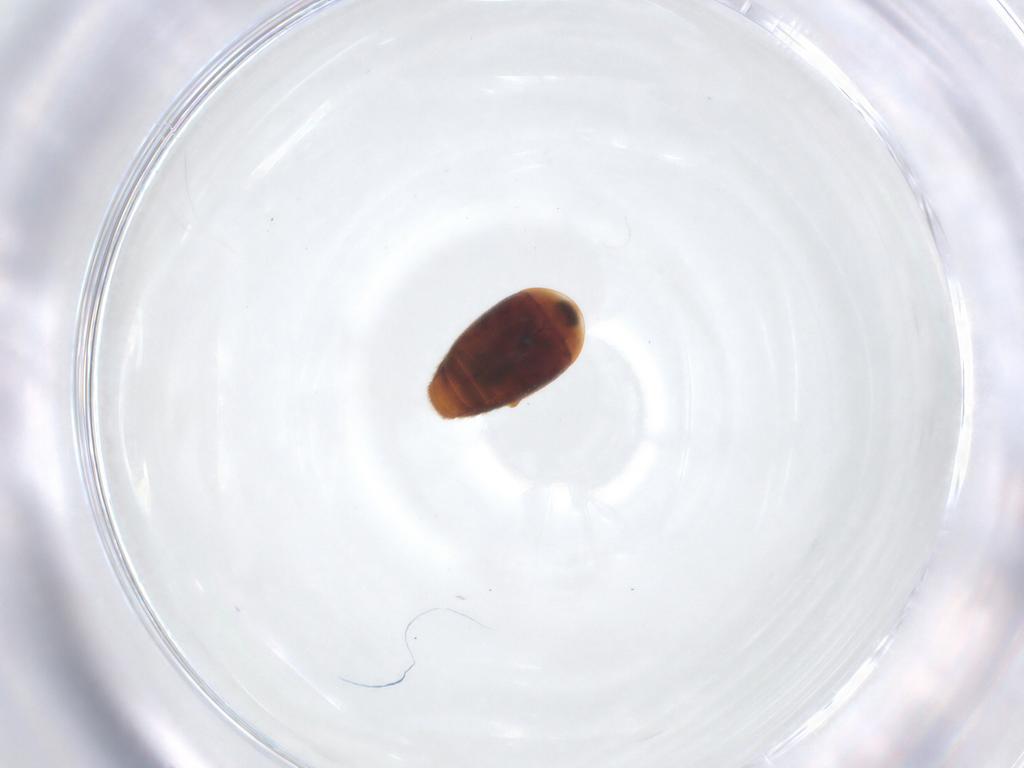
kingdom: Animalia
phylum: Arthropoda
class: Insecta
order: Coleoptera
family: Corylophidae
